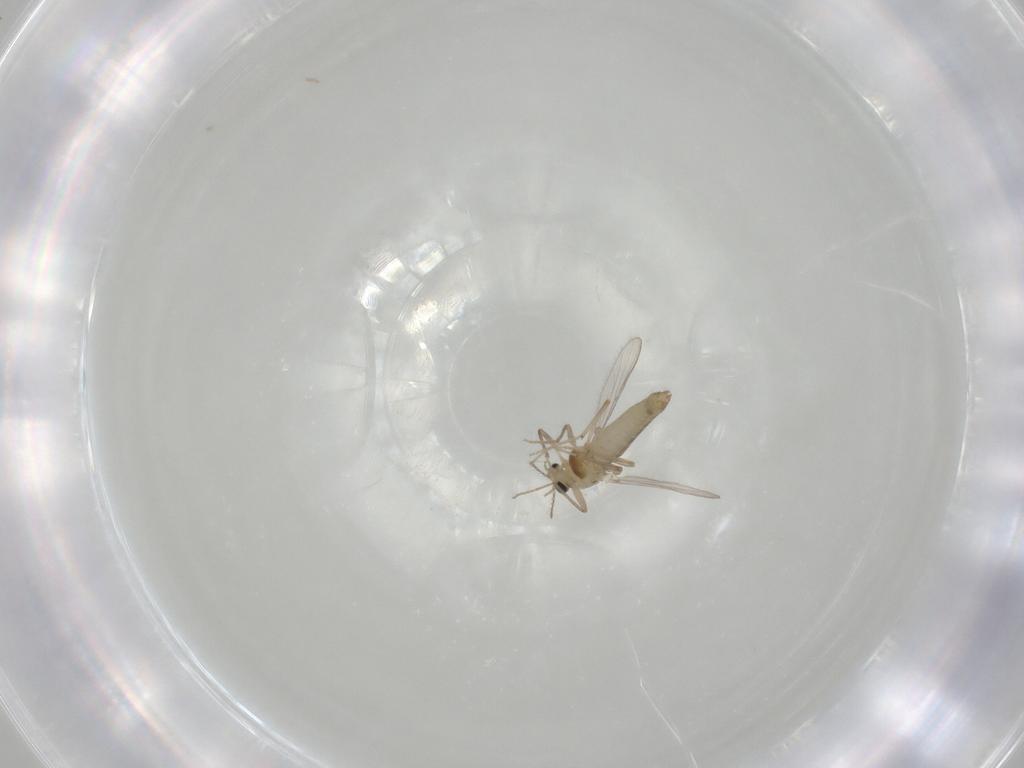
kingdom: Animalia
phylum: Arthropoda
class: Insecta
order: Diptera
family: Chironomidae
